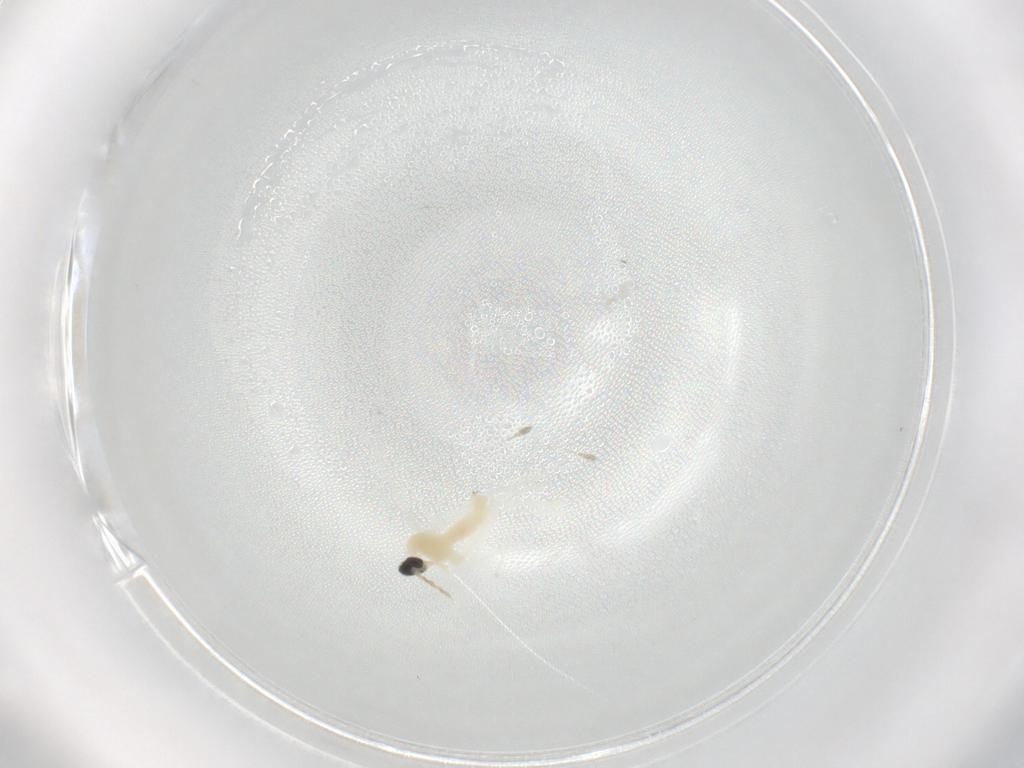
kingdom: Animalia
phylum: Arthropoda
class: Insecta
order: Diptera
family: Cecidomyiidae
